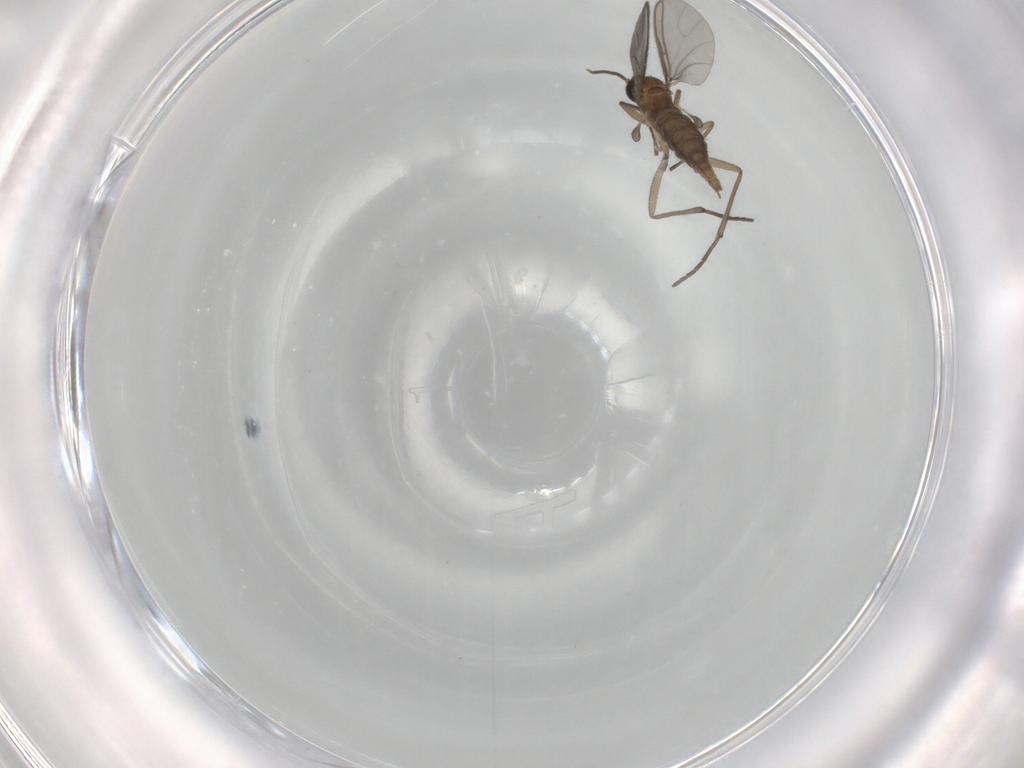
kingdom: Animalia
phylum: Arthropoda
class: Insecta
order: Diptera
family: Sciaridae
